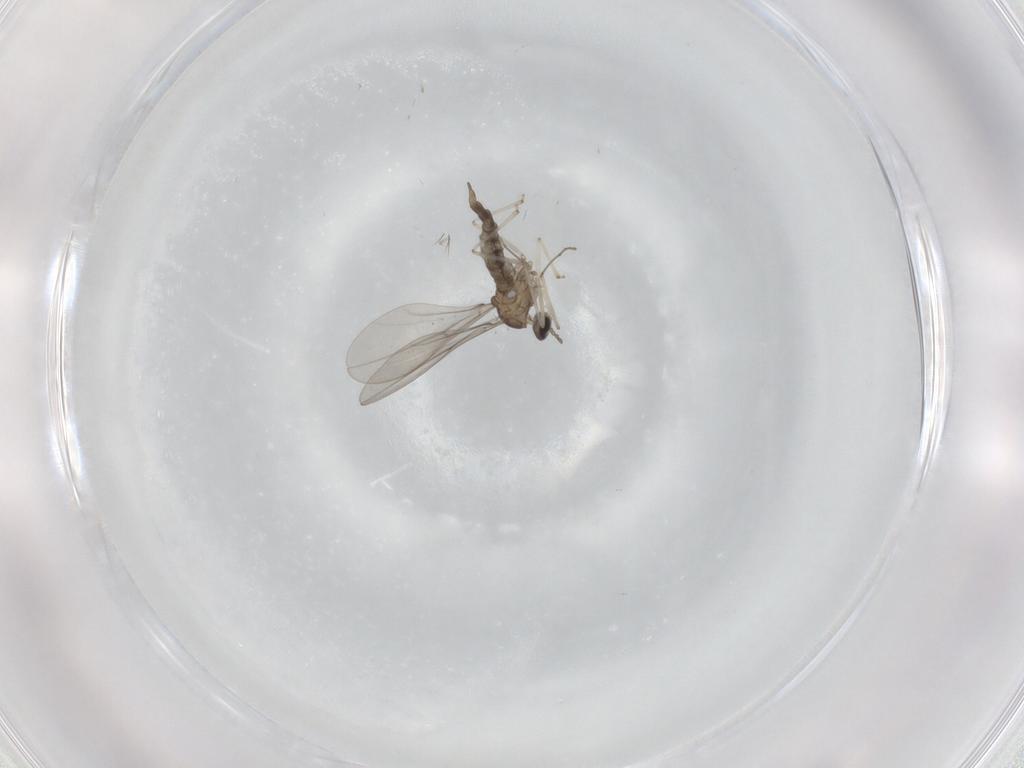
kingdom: Animalia
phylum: Arthropoda
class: Insecta
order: Diptera
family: Cecidomyiidae
